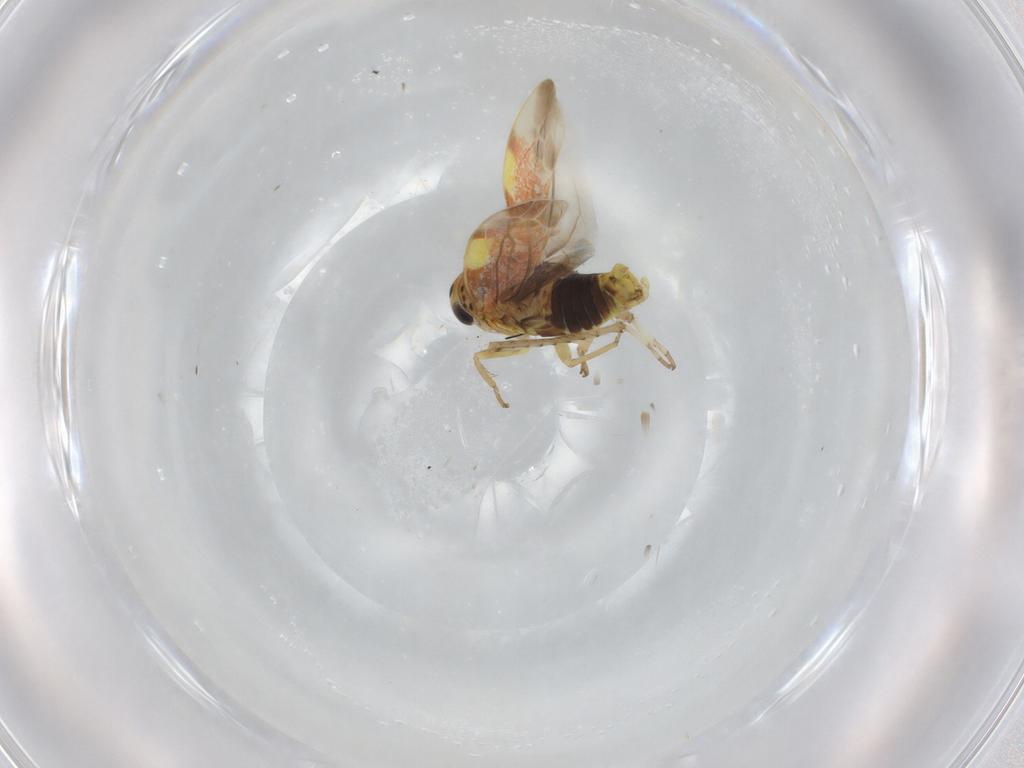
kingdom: Animalia
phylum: Arthropoda
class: Insecta
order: Hemiptera
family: Cicadellidae
